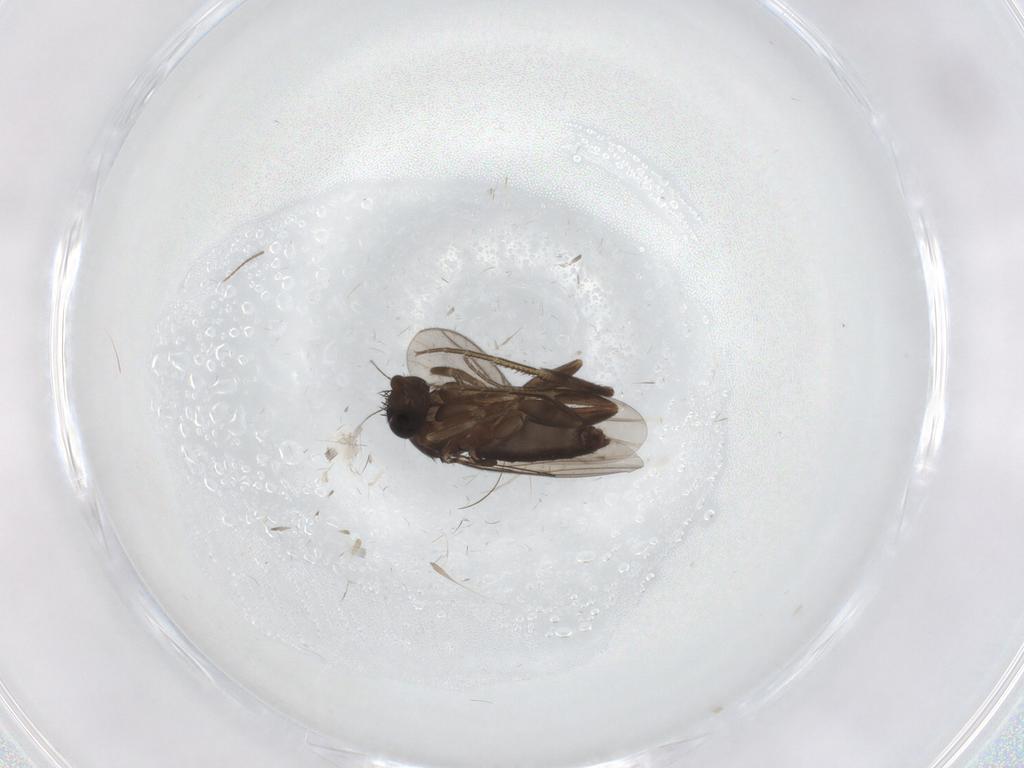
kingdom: Animalia
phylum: Arthropoda
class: Insecta
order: Diptera
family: Phoridae
